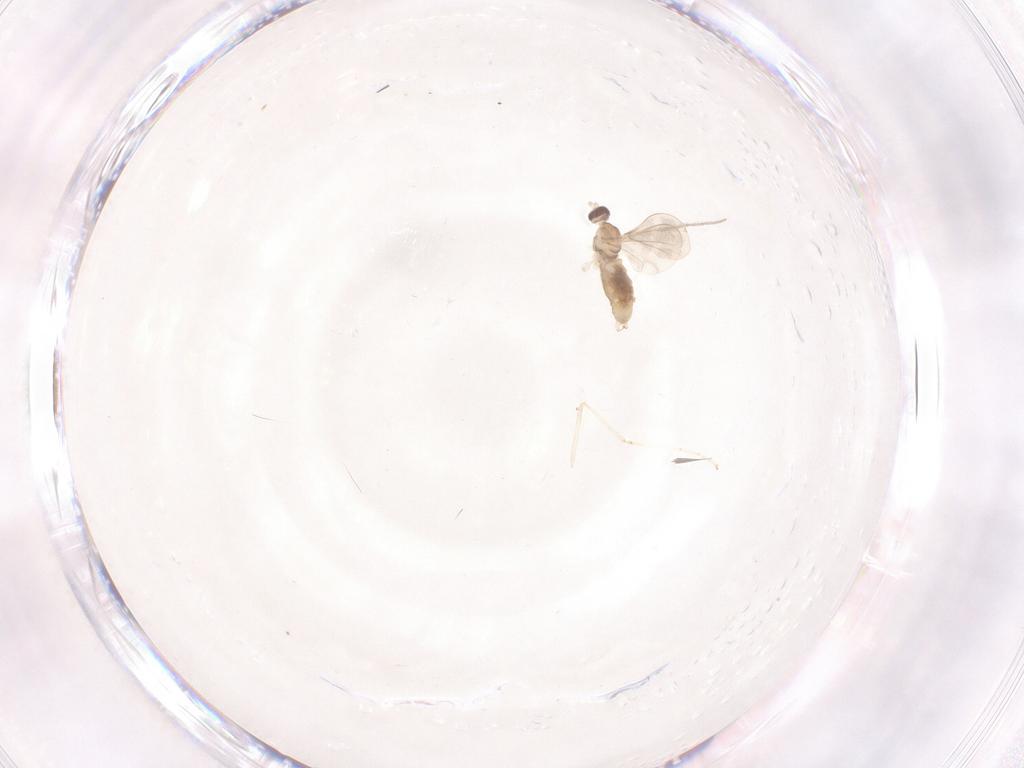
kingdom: Animalia
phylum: Arthropoda
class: Insecta
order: Diptera
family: Cecidomyiidae
